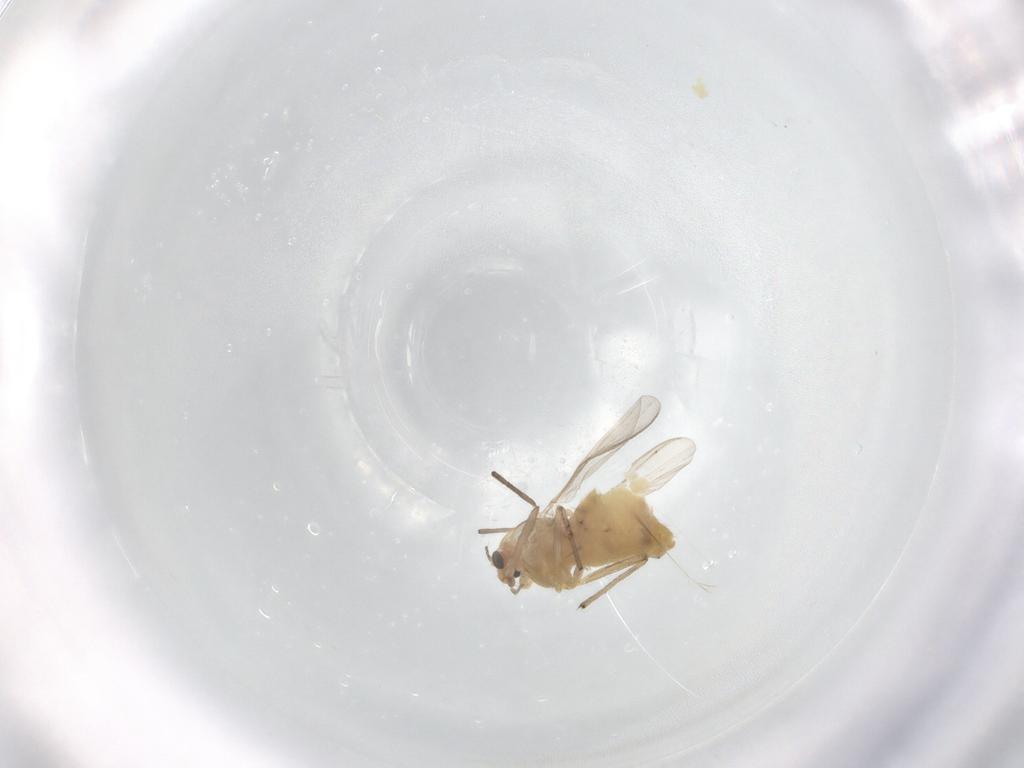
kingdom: Animalia
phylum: Arthropoda
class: Insecta
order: Diptera
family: Chironomidae
